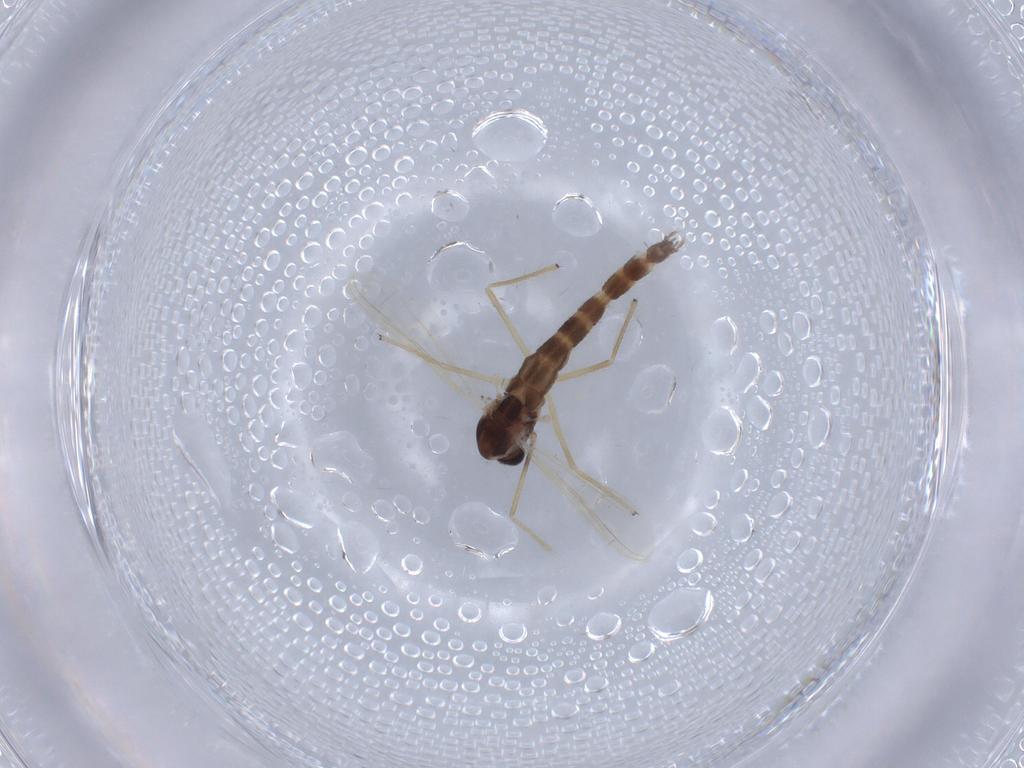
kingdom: Animalia
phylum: Arthropoda
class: Insecta
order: Diptera
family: Chironomidae
